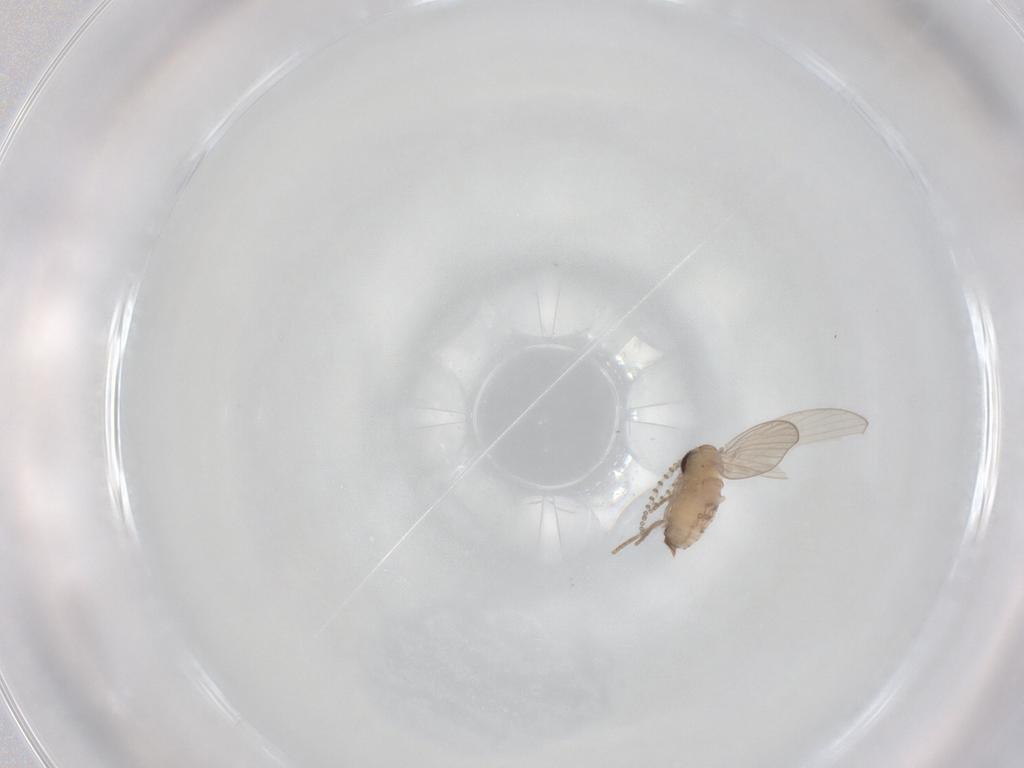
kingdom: Animalia
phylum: Arthropoda
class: Insecta
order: Diptera
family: Psychodidae
